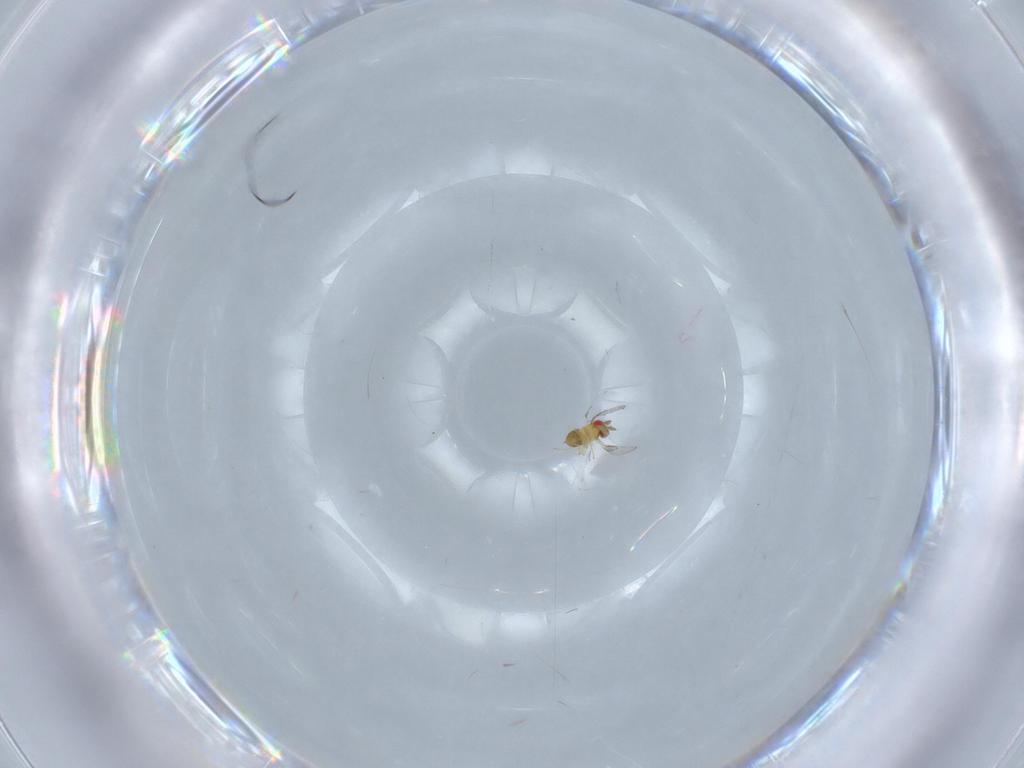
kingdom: Animalia
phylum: Arthropoda
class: Insecta
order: Hymenoptera
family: Trichogrammatidae
